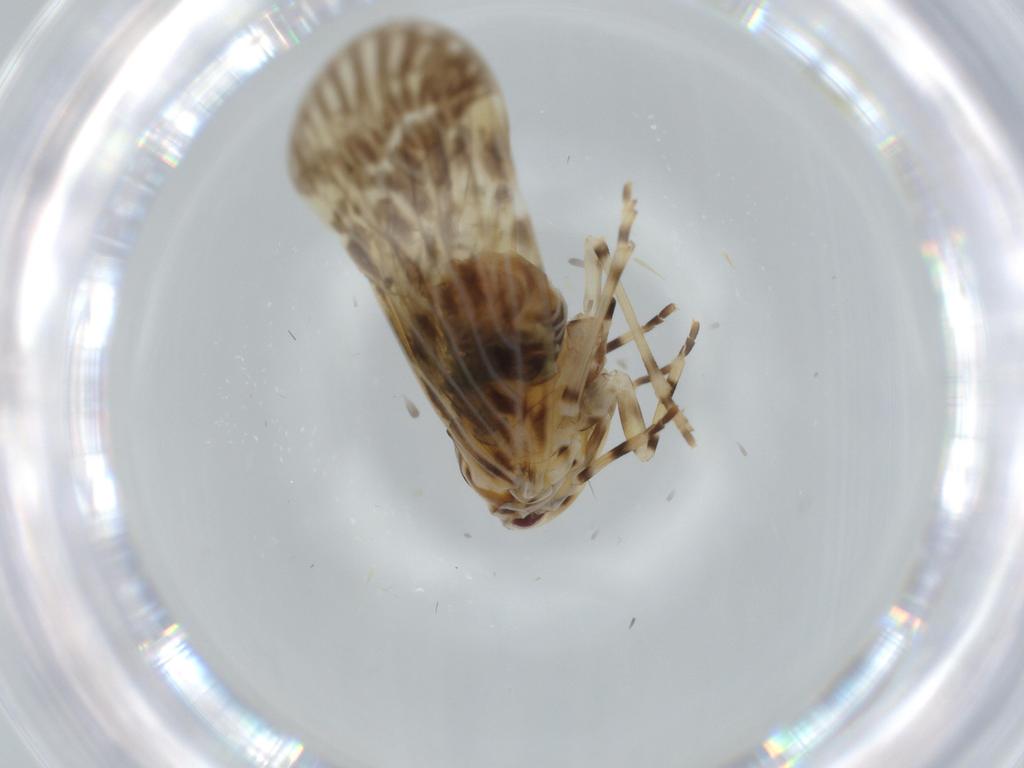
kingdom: Animalia
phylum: Arthropoda
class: Insecta
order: Hemiptera
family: Derbidae
